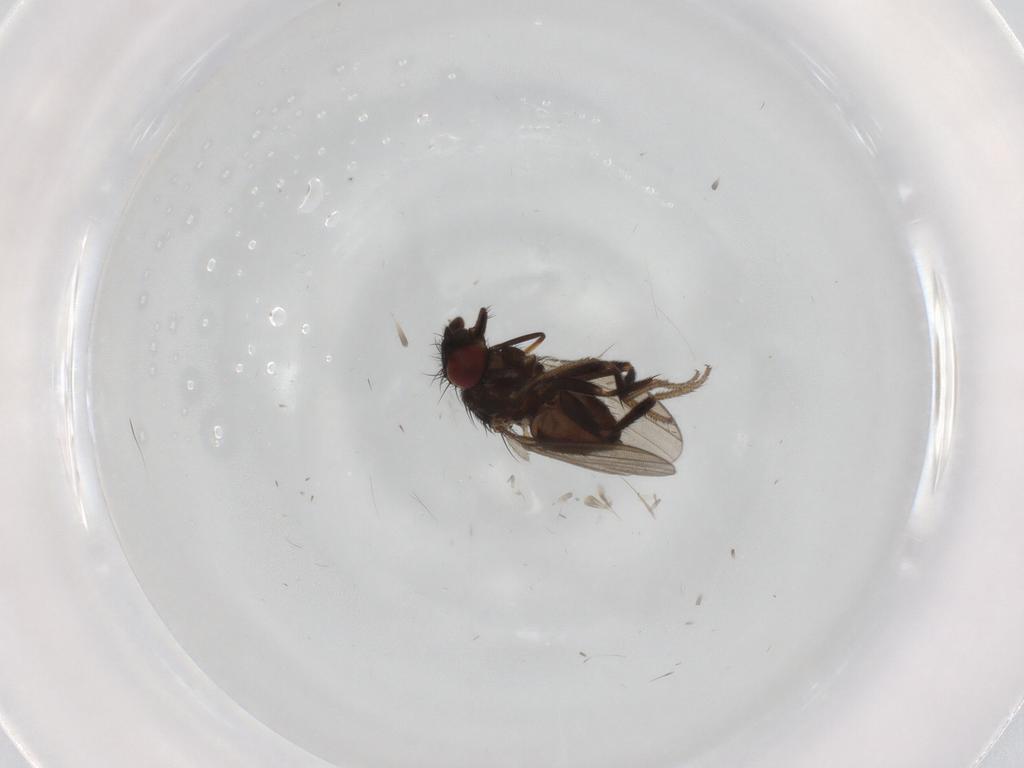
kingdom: Animalia
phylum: Arthropoda
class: Insecta
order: Diptera
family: Milichiidae
